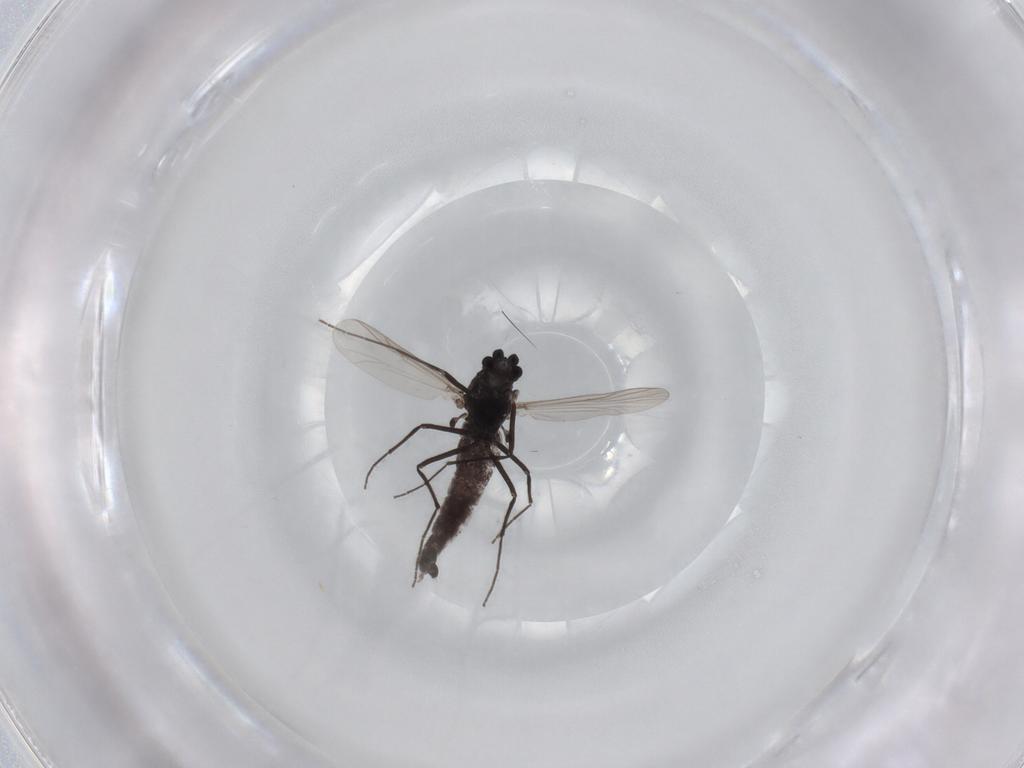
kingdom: Animalia
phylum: Arthropoda
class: Insecta
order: Diptera
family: Chironomidae
